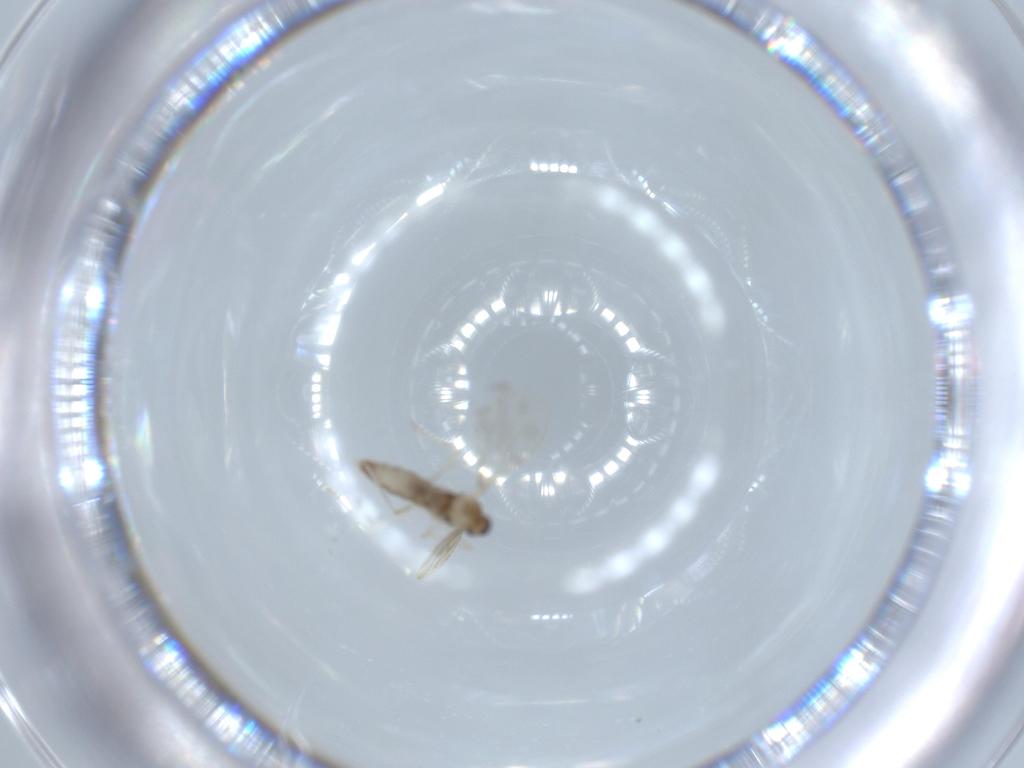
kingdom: Animalia
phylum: Arthropoda
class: Insecta
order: Diptera
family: Cecidomyiidae
